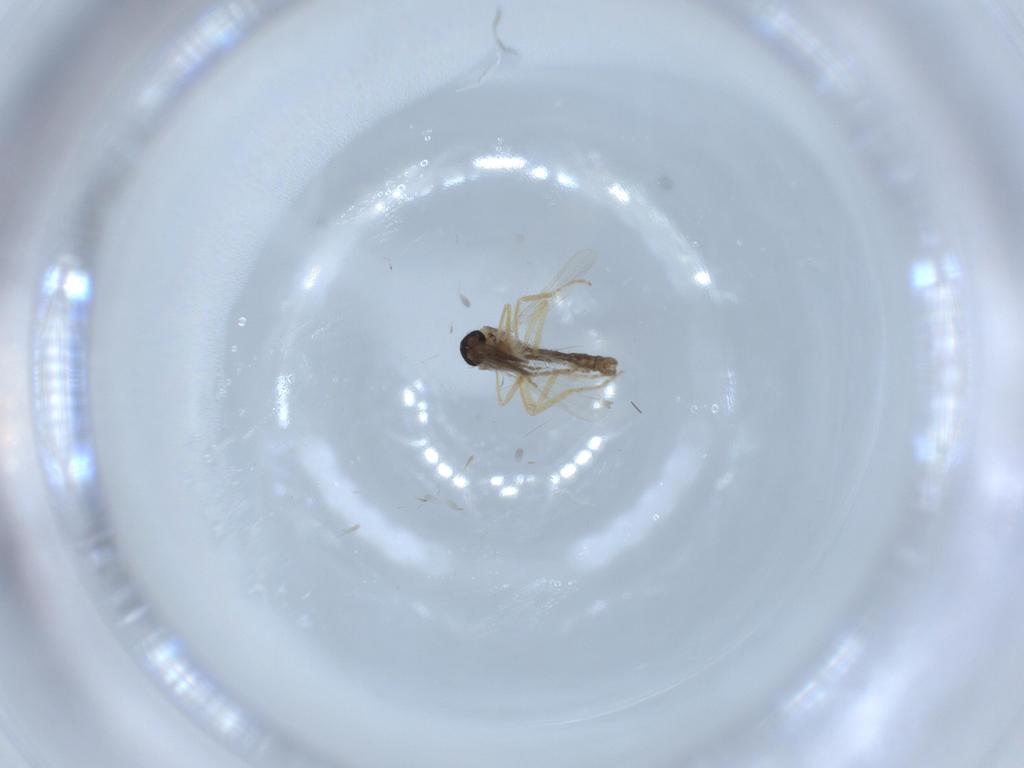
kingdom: Animalia
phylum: Arthropoda
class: Insecta
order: Diptera
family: Ceratopogonidae
